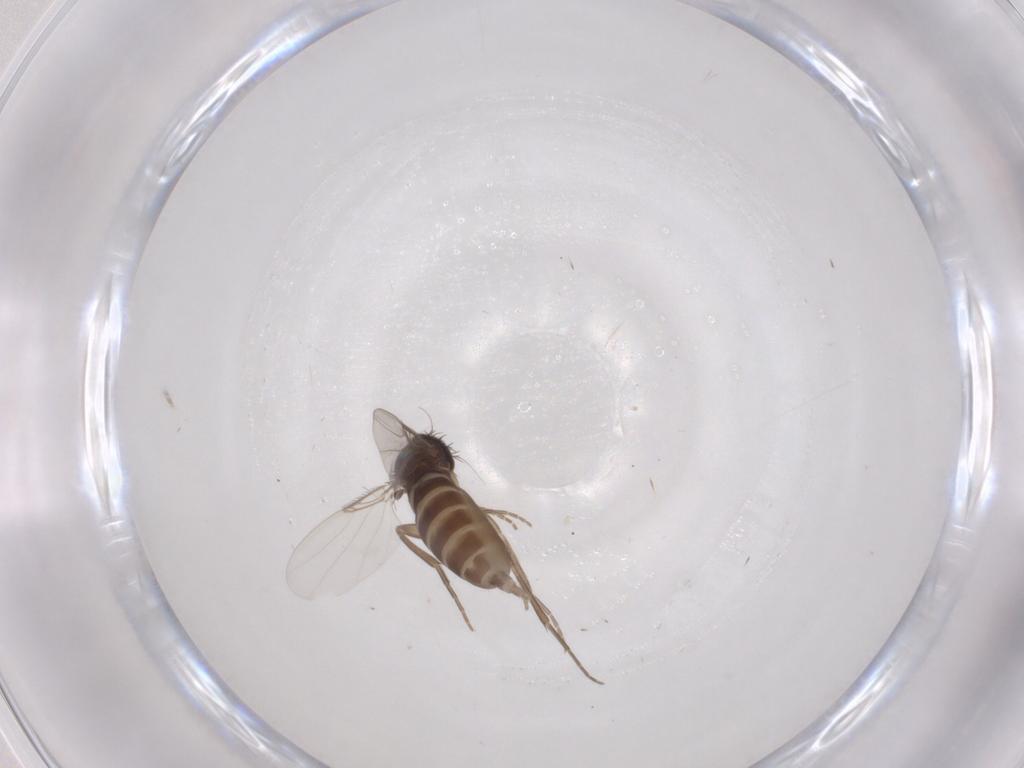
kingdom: Animalia
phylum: Arthropoda
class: Insecta
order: Diptera
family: Phoridae
